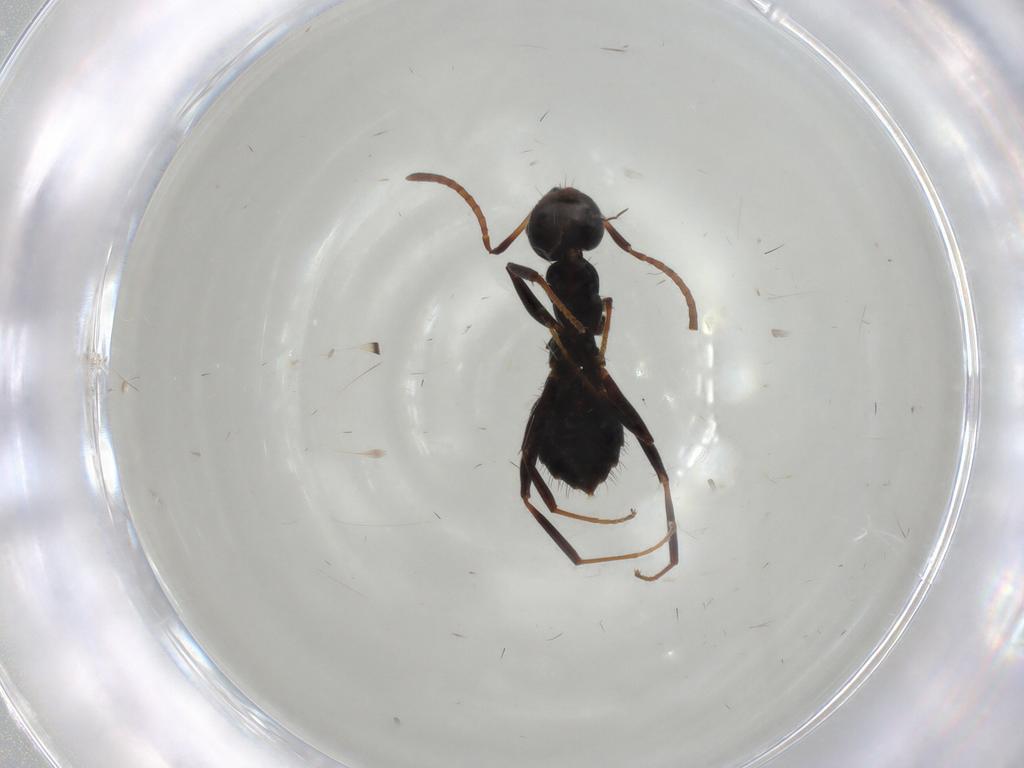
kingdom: Animalia
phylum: Arthropoda
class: Insecta
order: Hymenoptera
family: Formicidae
